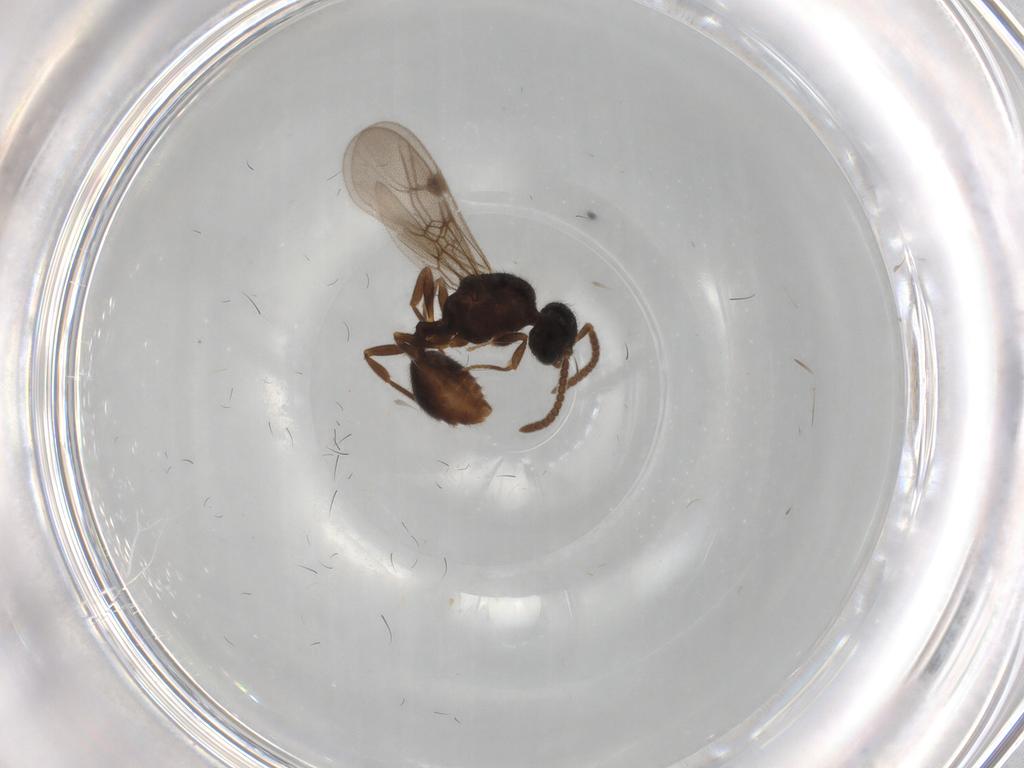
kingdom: Animalia
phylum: Arthropoda
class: Insecta
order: Hymenoptera
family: Formicidae
